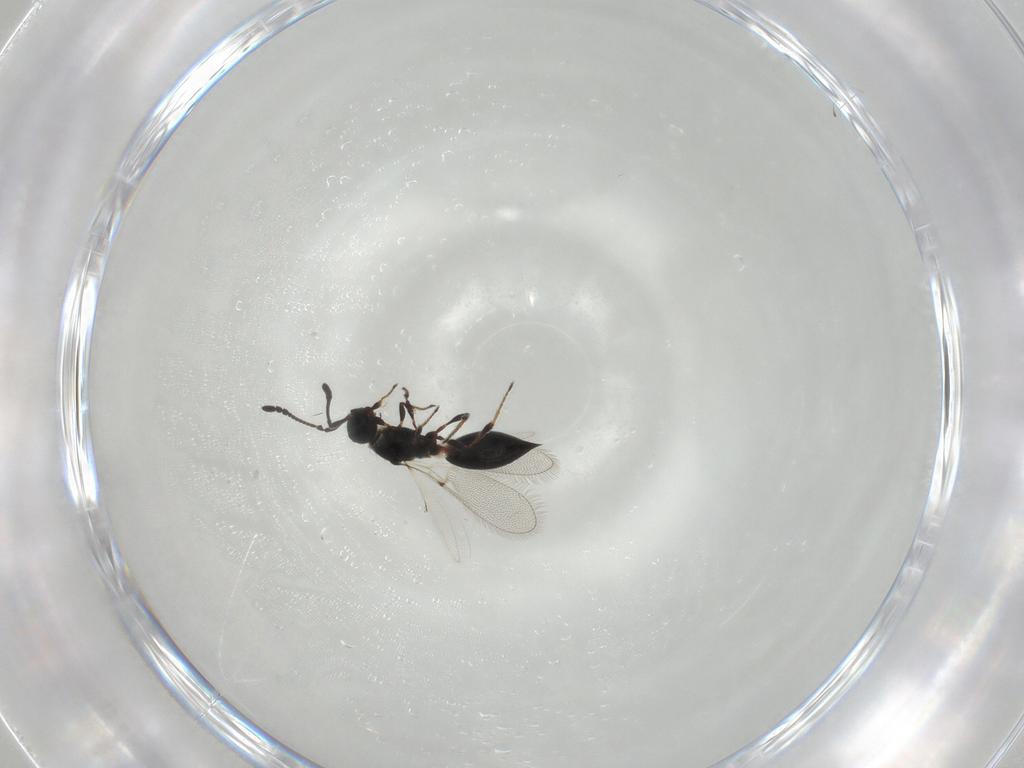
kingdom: Animalia
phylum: Arthropoda
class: Insecta
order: Hymenoptera
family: Diapriidae
